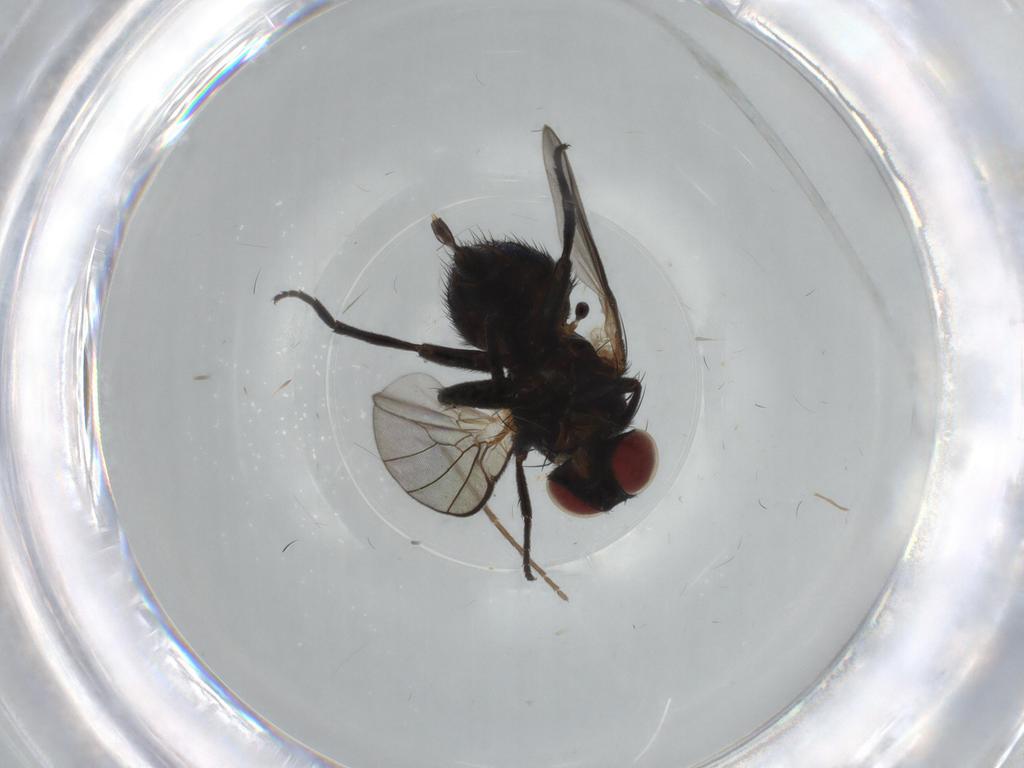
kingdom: Animalia
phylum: Arthropoda
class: Insecta
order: Diptera
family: Agromyzidae
